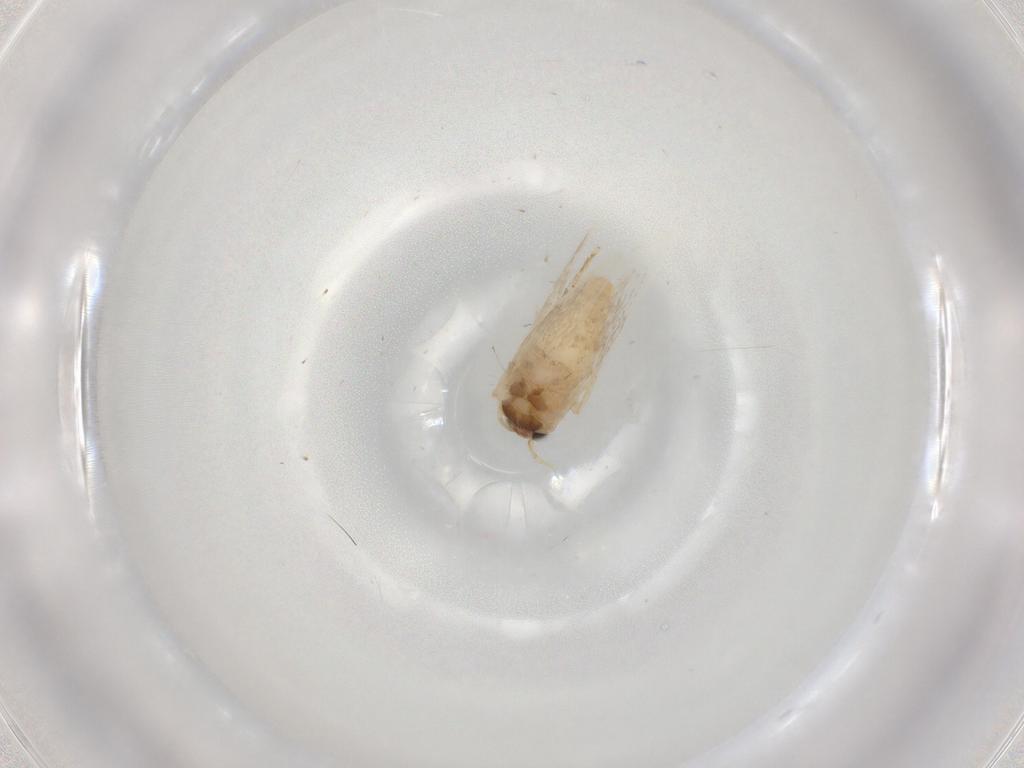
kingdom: Animalia
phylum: Arthropoda
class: Insecta
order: Lepidoptera
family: Nepticulidae
